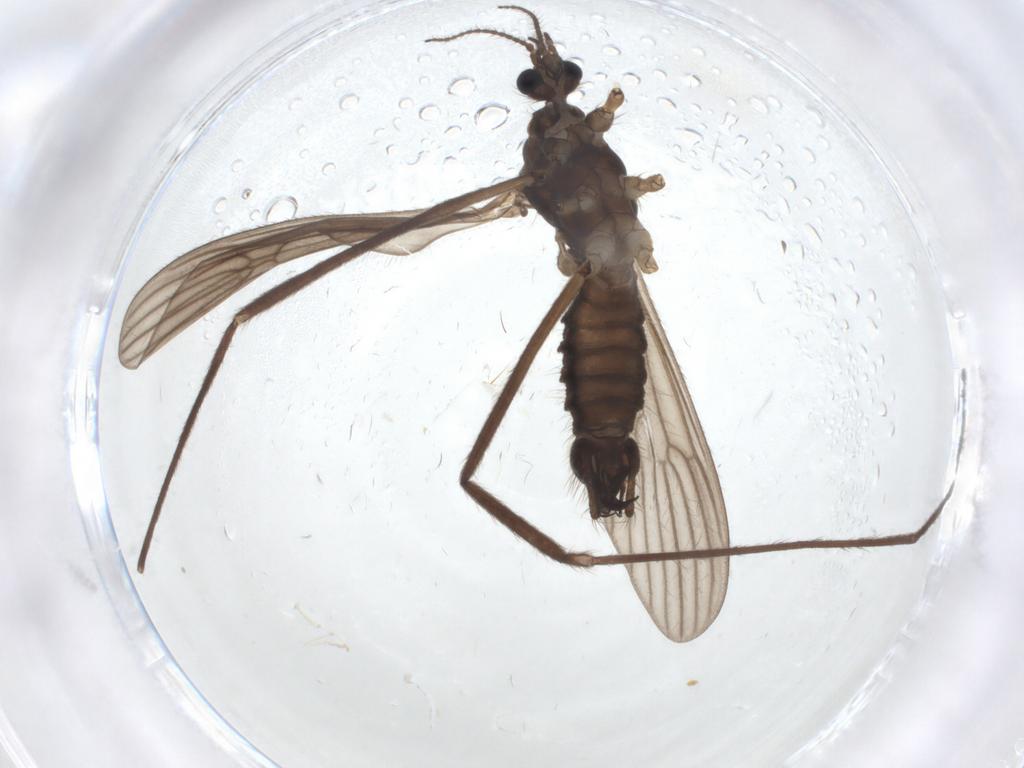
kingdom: Animalia
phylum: Arthropoda
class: Insecta
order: Diptera
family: Limoniidae
